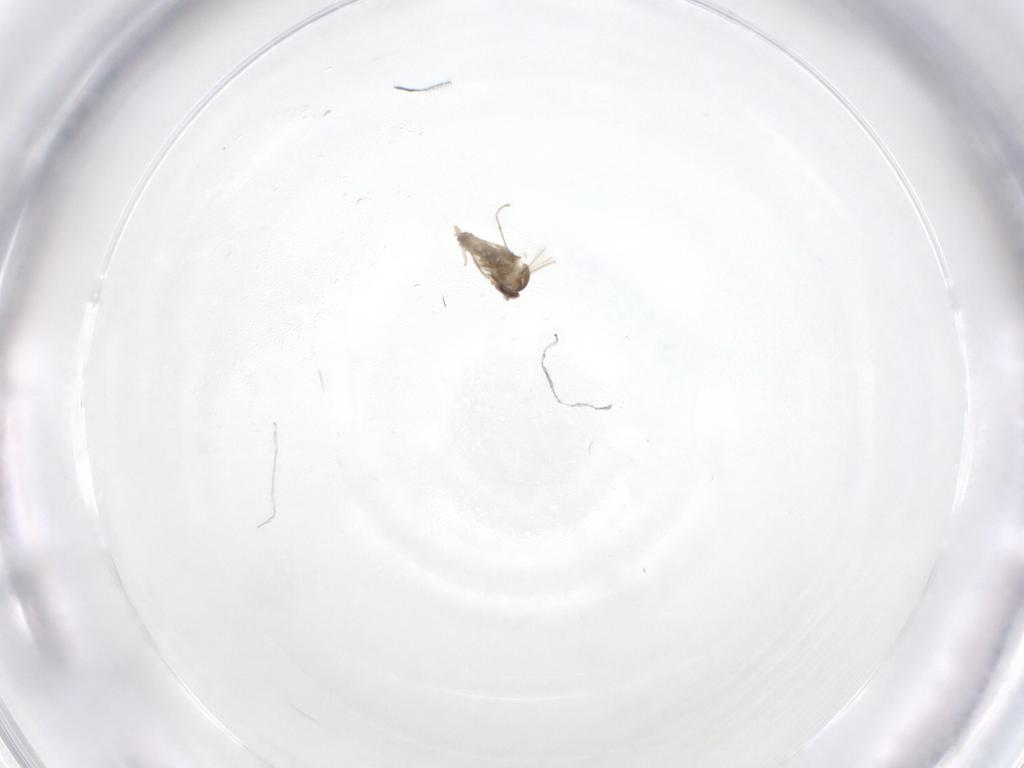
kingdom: Animalia
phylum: Arthropoda
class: Insecta
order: Diptera
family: Cecidomyiidae
